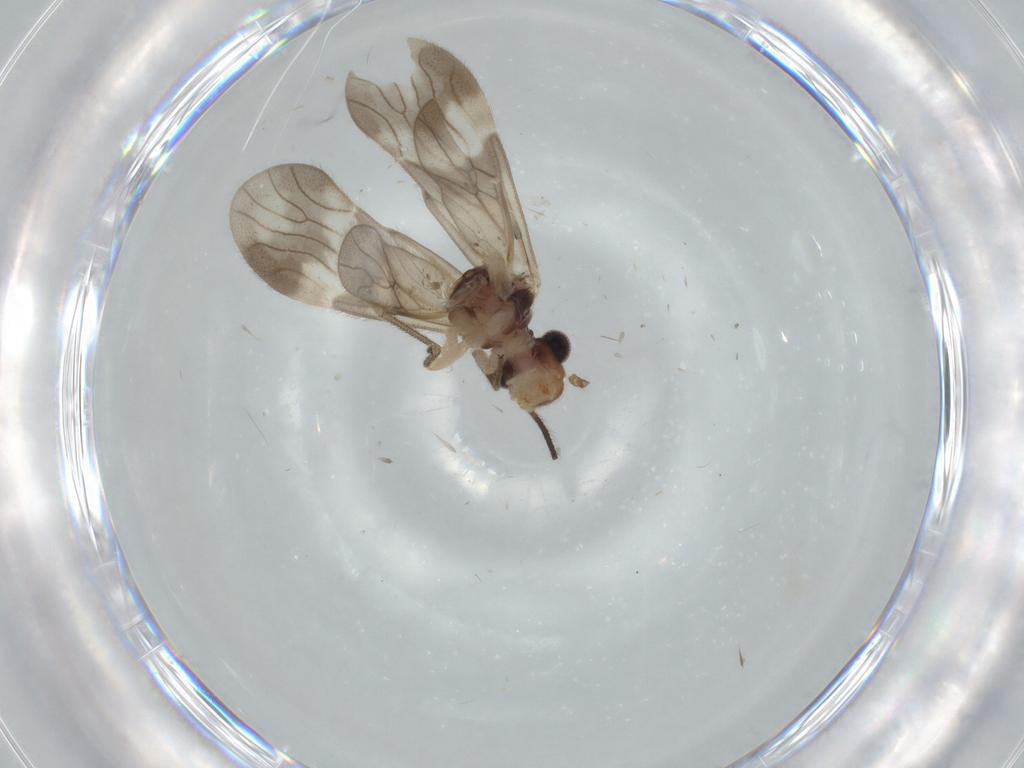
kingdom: Animalia
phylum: Arthropoda
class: Insecta
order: Psocodea
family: Amphipsocidae
